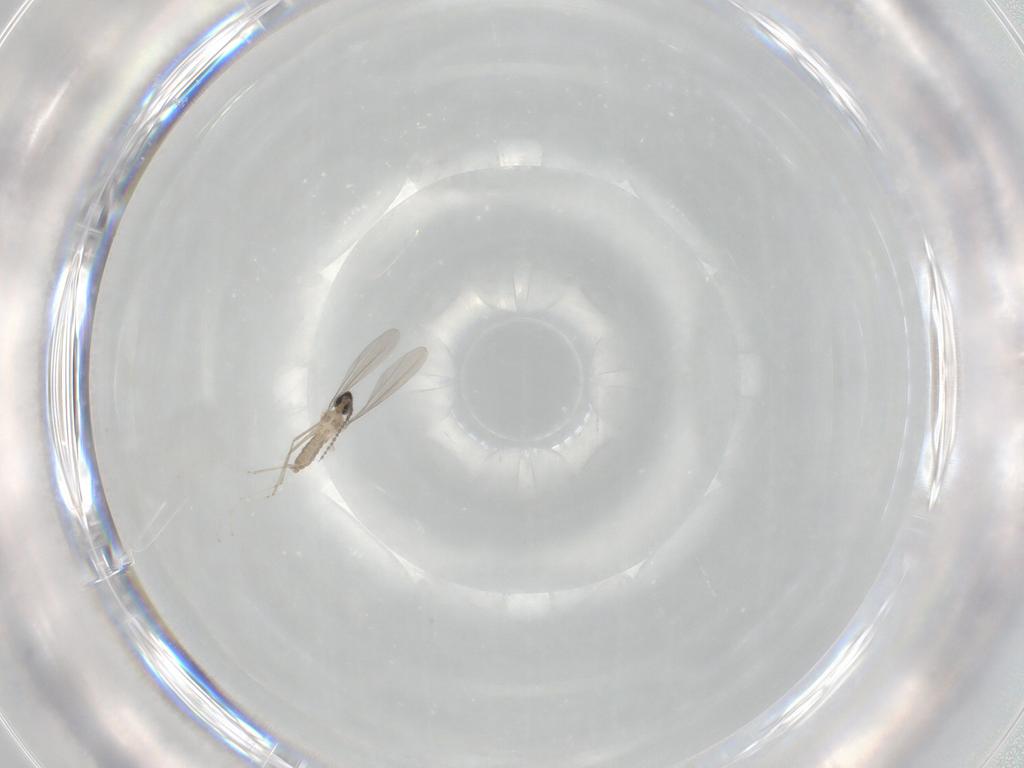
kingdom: Animalia
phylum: Arthropoda
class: Insecta
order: Diptera
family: Cecidomyiidae
